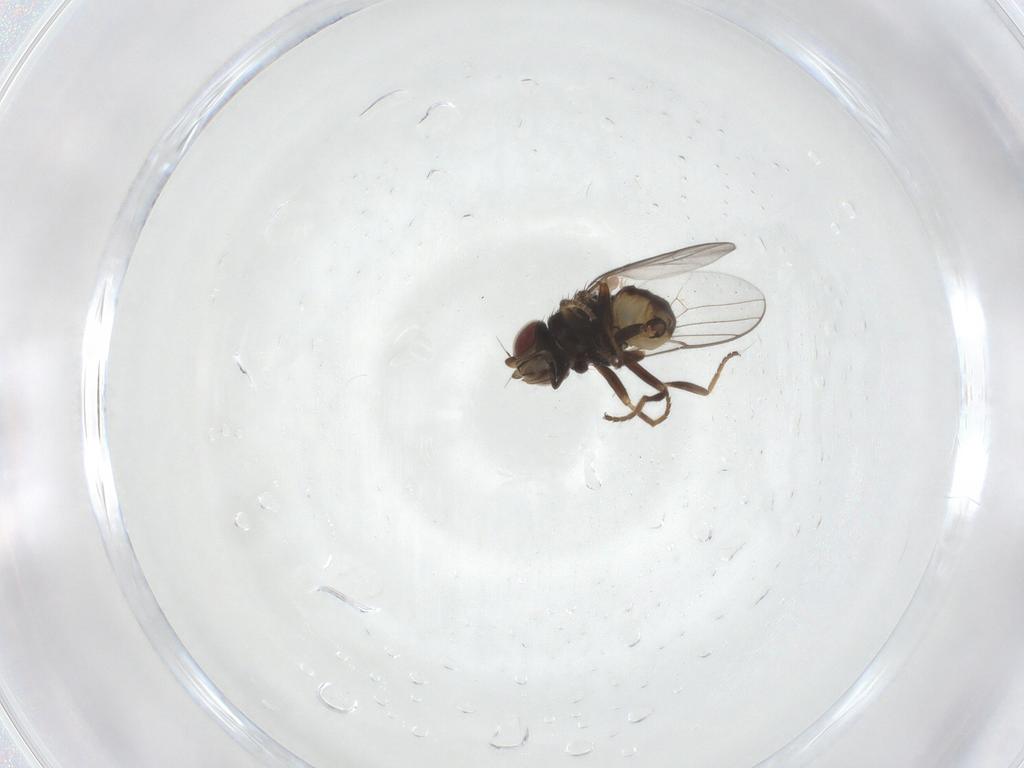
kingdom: Animalia
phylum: Arthropoda
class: Insecta
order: Diptera
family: Chloropidae
